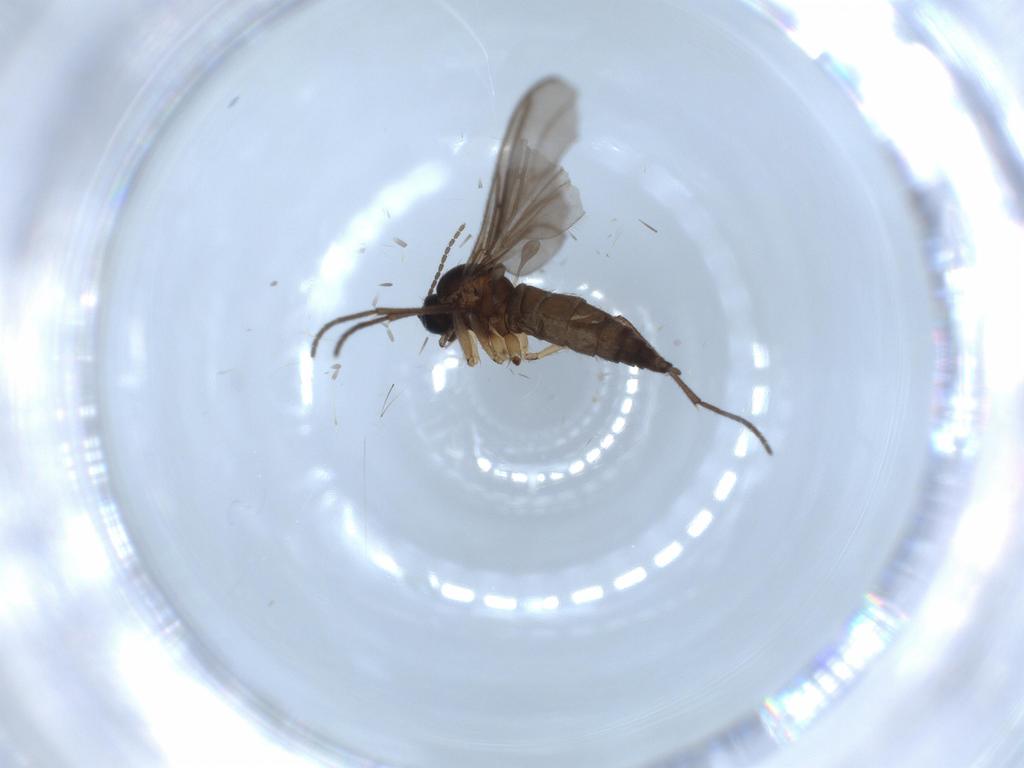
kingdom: Animalia
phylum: Arthropoda
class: Insecta
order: Diptera
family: Sciaridae
